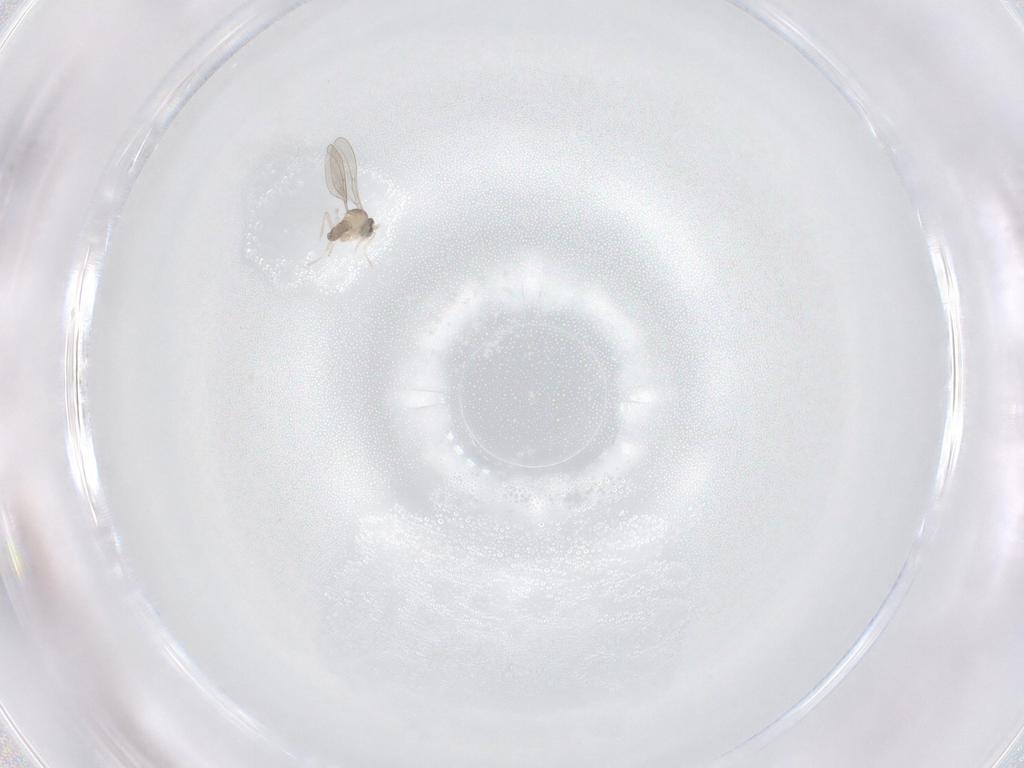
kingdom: Animalia
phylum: Arthropoda
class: Insecta
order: Diptera
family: Cecidomyiidae
